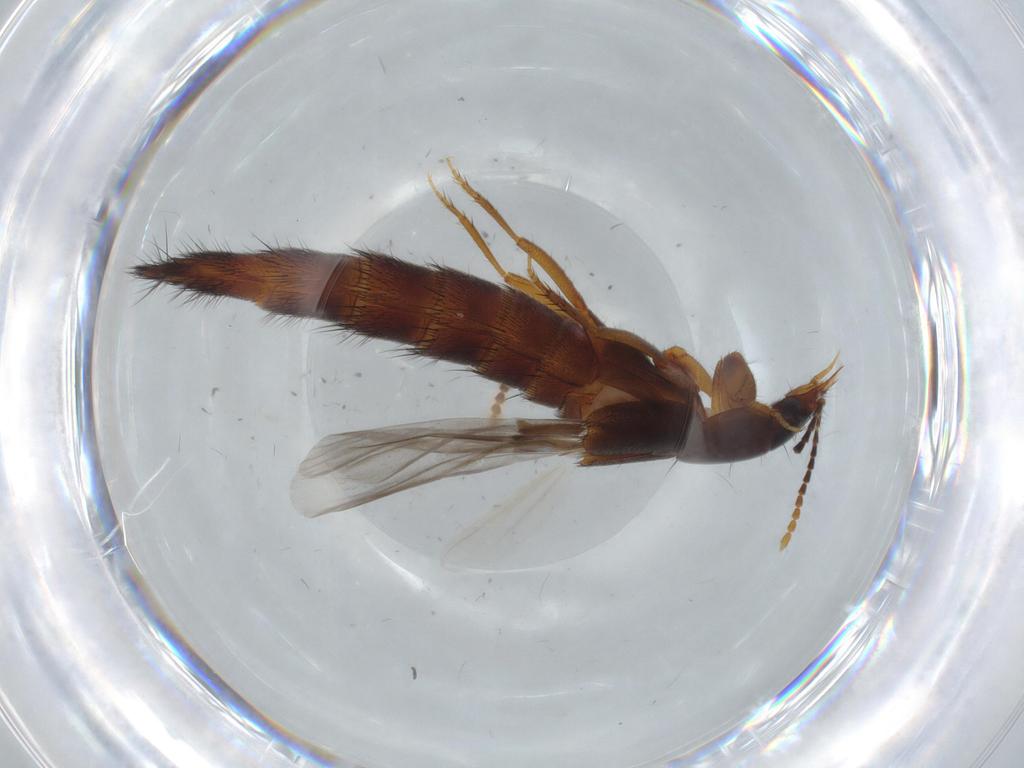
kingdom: Animalia
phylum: Arthropoda
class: Insecta
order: Coleoptera
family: Staphylinidae
